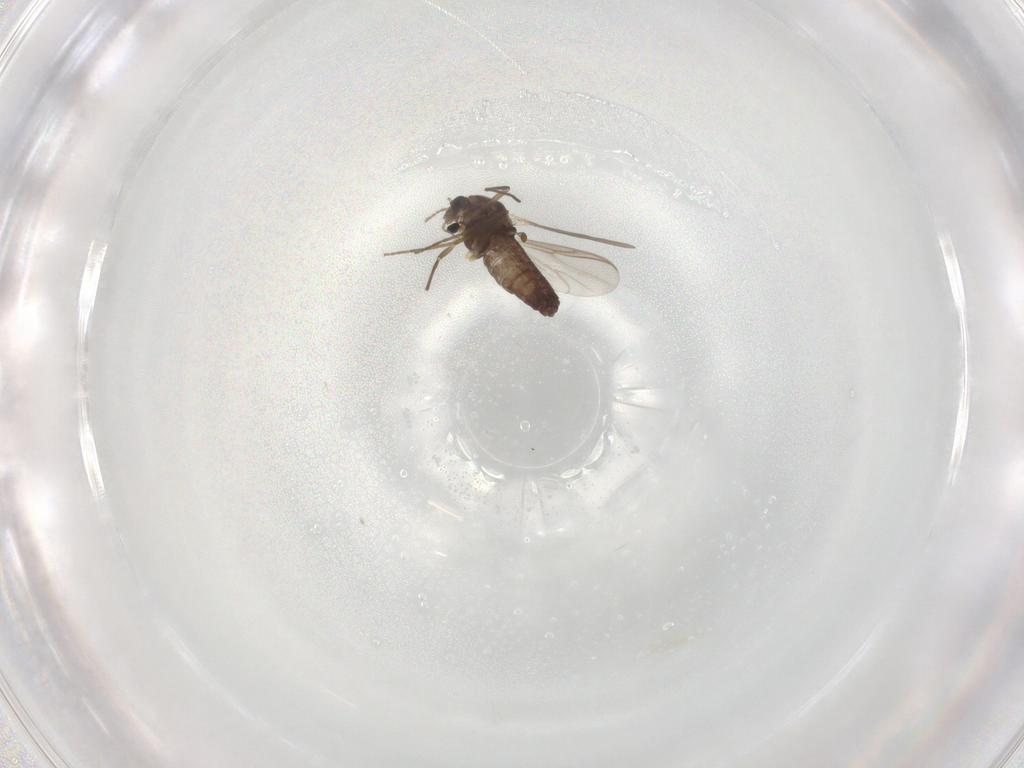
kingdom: Animalia
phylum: Arthropoda
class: Insecta
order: Diptera
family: Chironomidae
